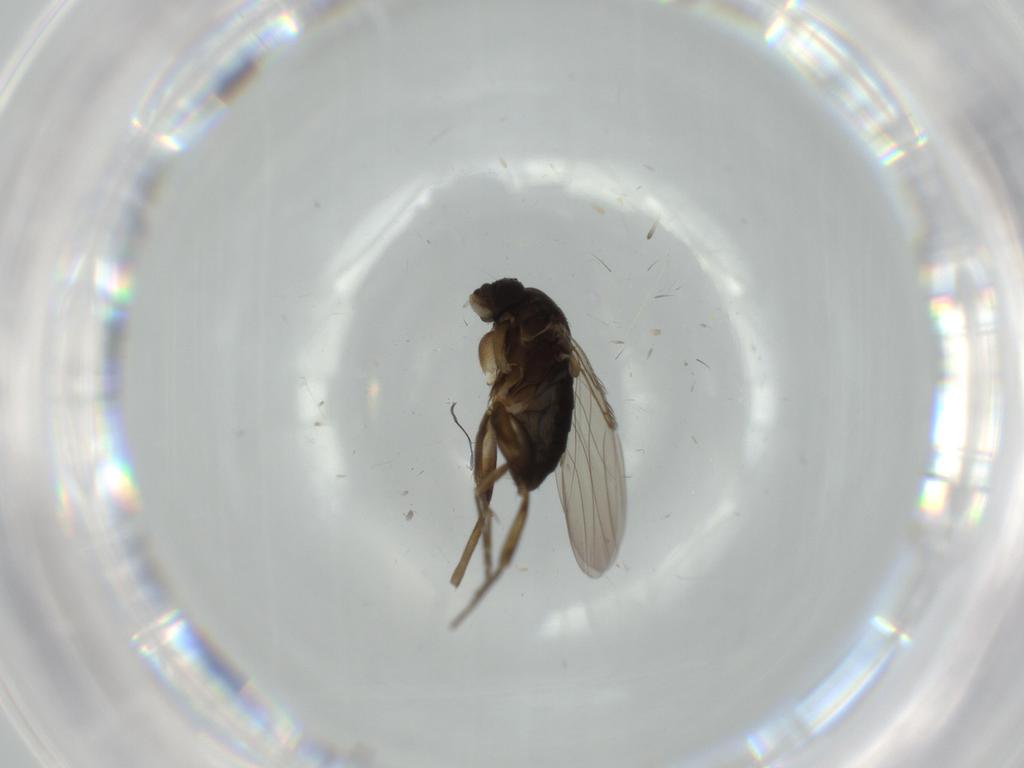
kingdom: Animalia
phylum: Arthropoda
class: Insecta
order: Diptera
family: Phoridae
